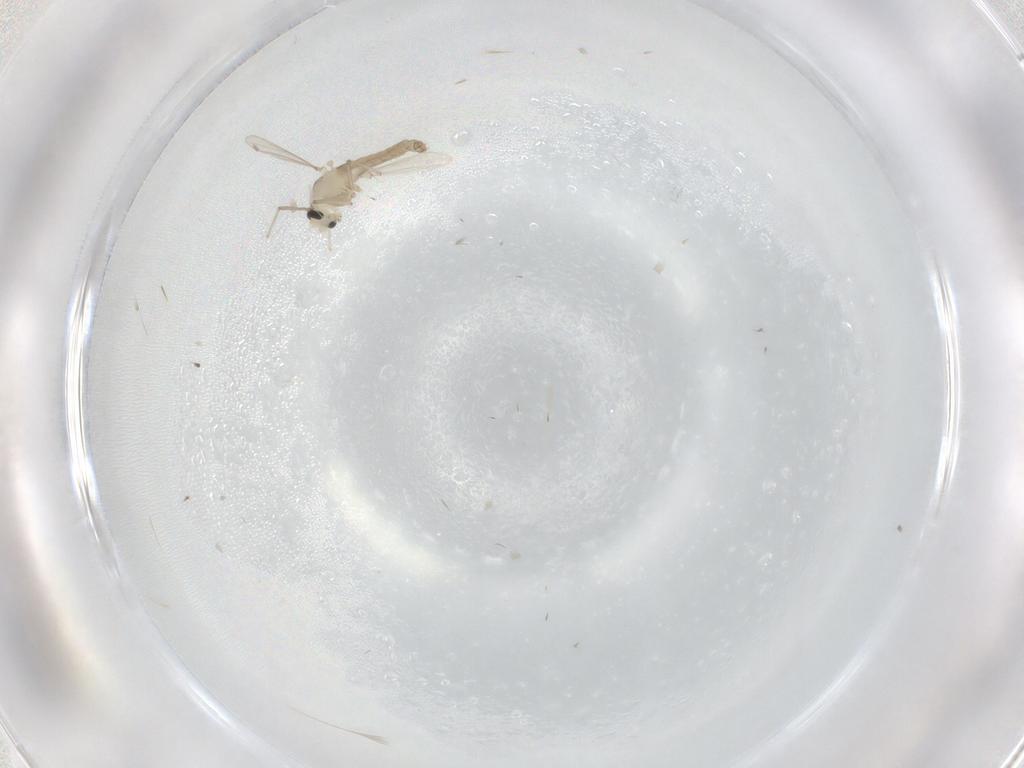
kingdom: Animalia
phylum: Arthropoda
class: Insecta
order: Diptera
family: Chironomidae
